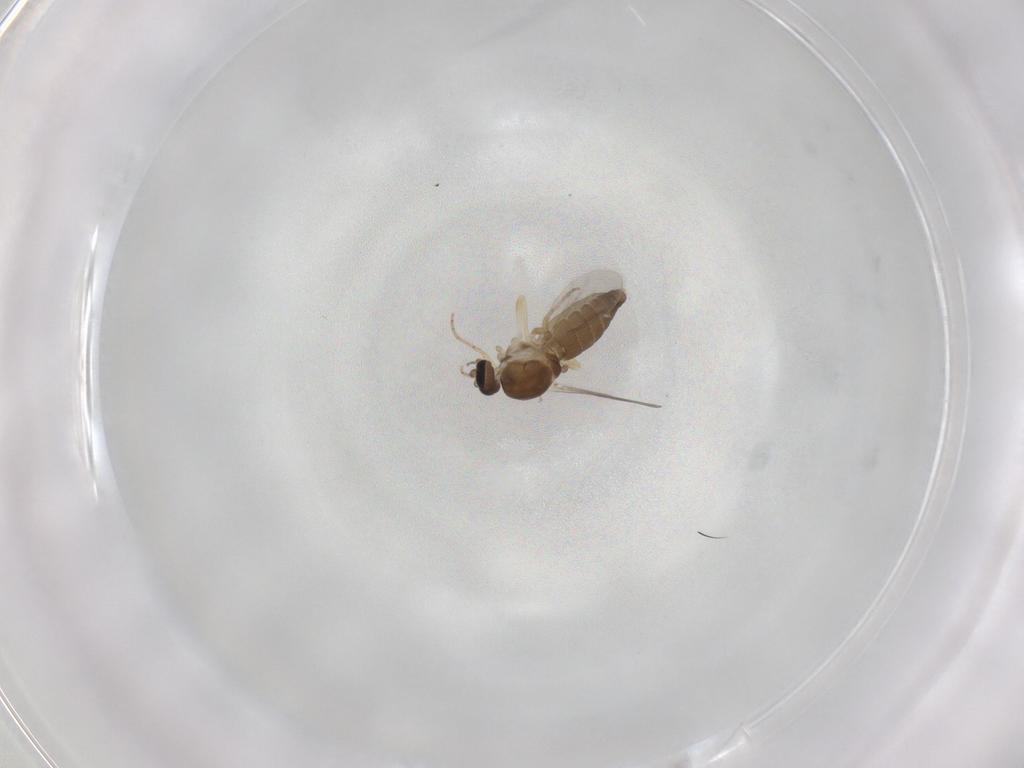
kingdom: Animalia
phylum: Arthropoda
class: Insecta
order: Diptera
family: Ceratopogonidae
